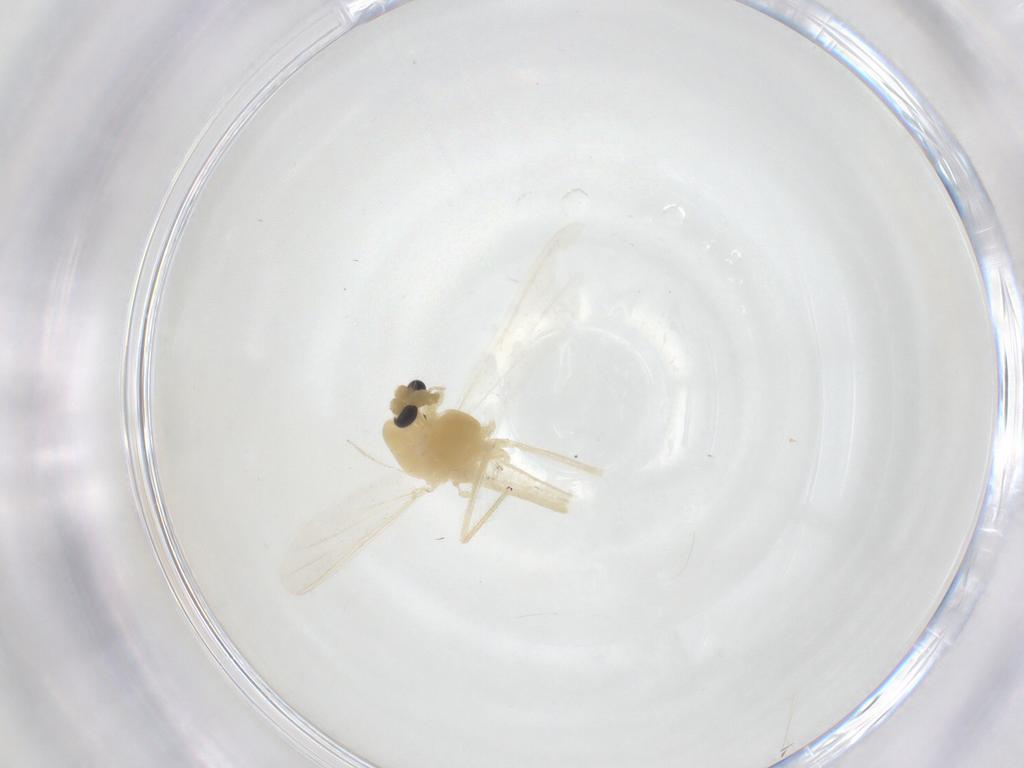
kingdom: Animalia
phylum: Arthropoda
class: Insecta
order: Diptera
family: Chironomidae
